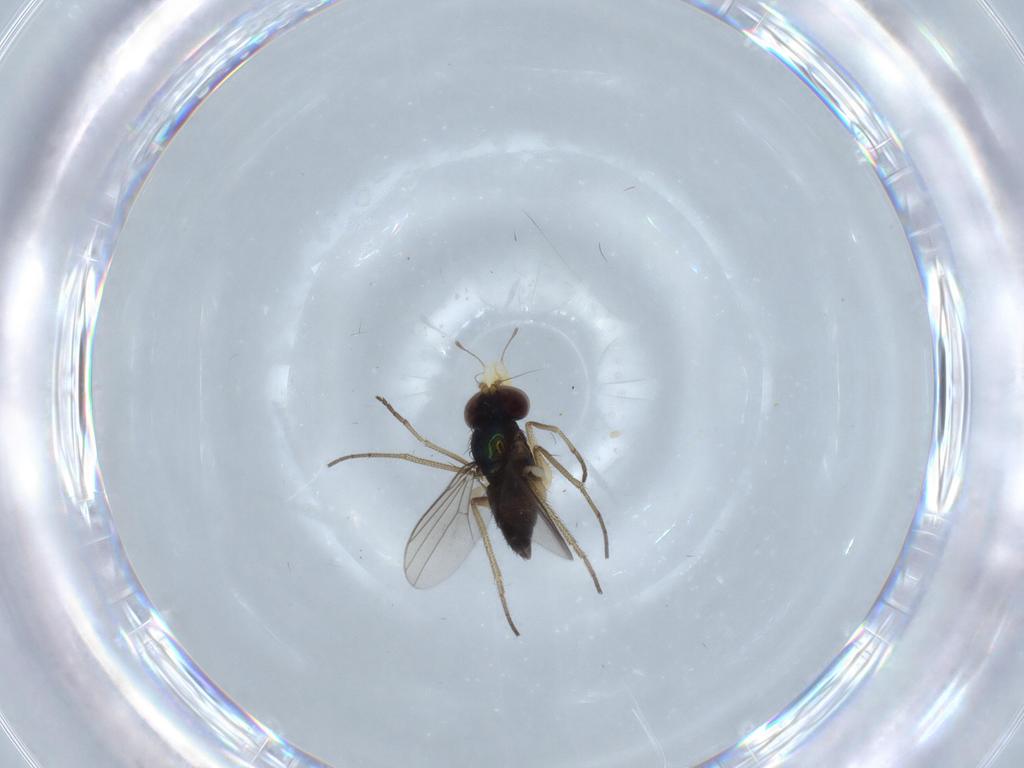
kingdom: Animalia
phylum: Arthropoda
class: Insecta
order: Diptera
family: Dolichopodidae
